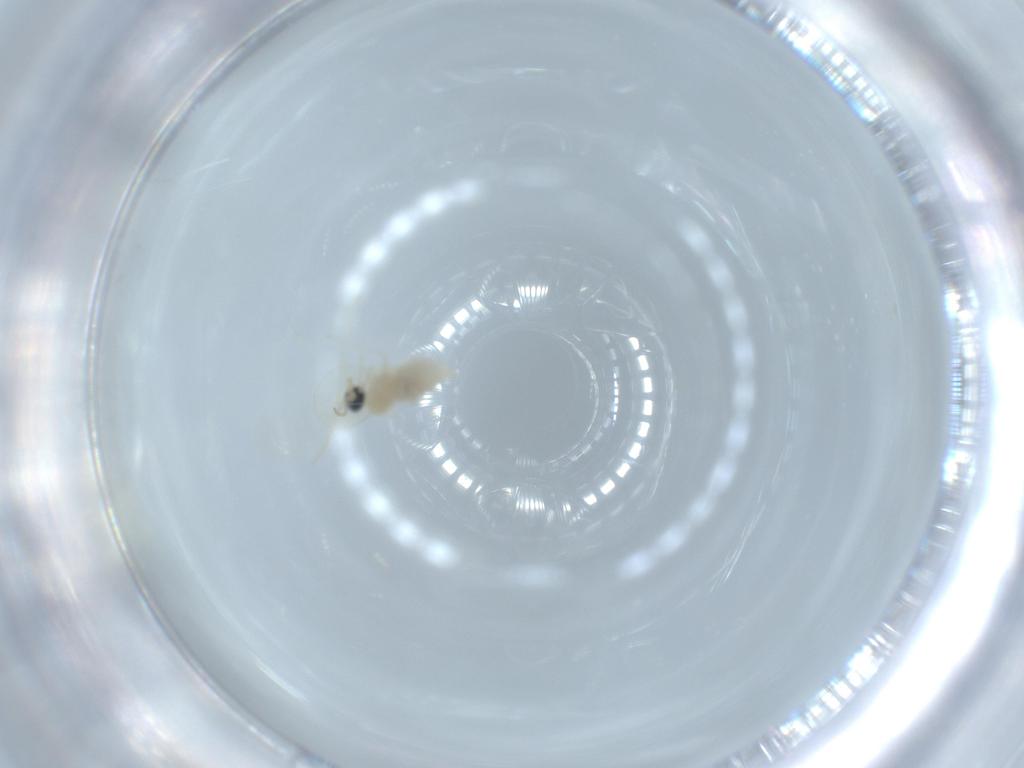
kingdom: Animalia
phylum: Arthropoda
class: Insecta
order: Diptera
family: Cecidomyiidae
